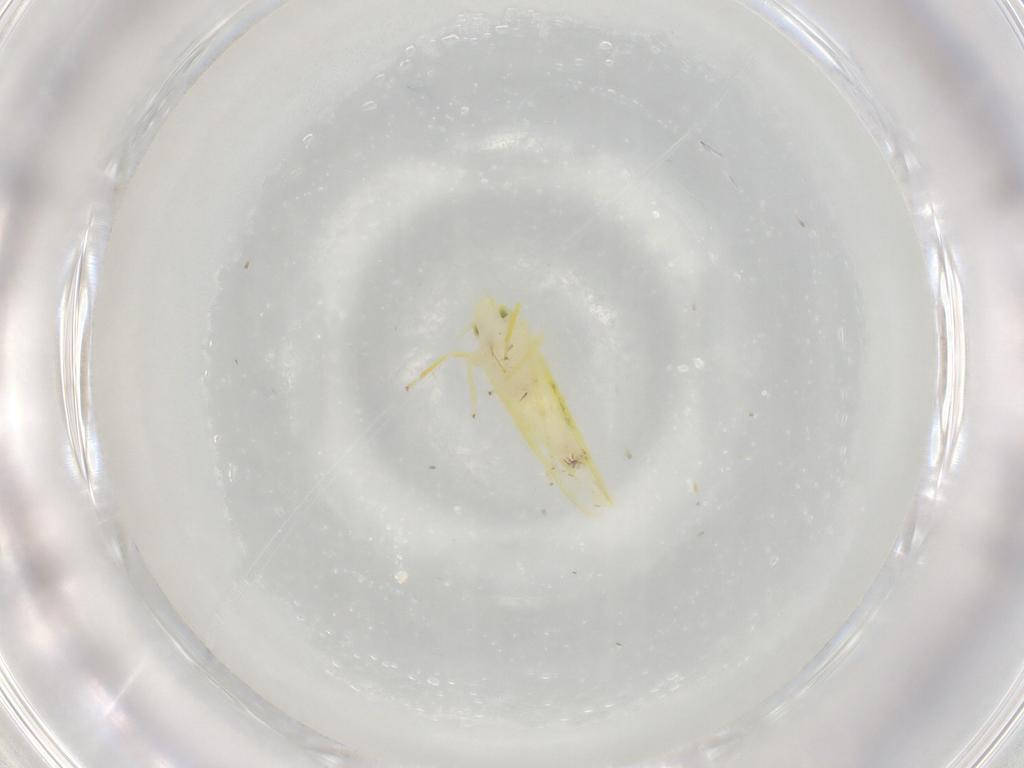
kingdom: Animalia
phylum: Arthropoda
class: Insecta
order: Hemiptera
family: Cicadellidae
